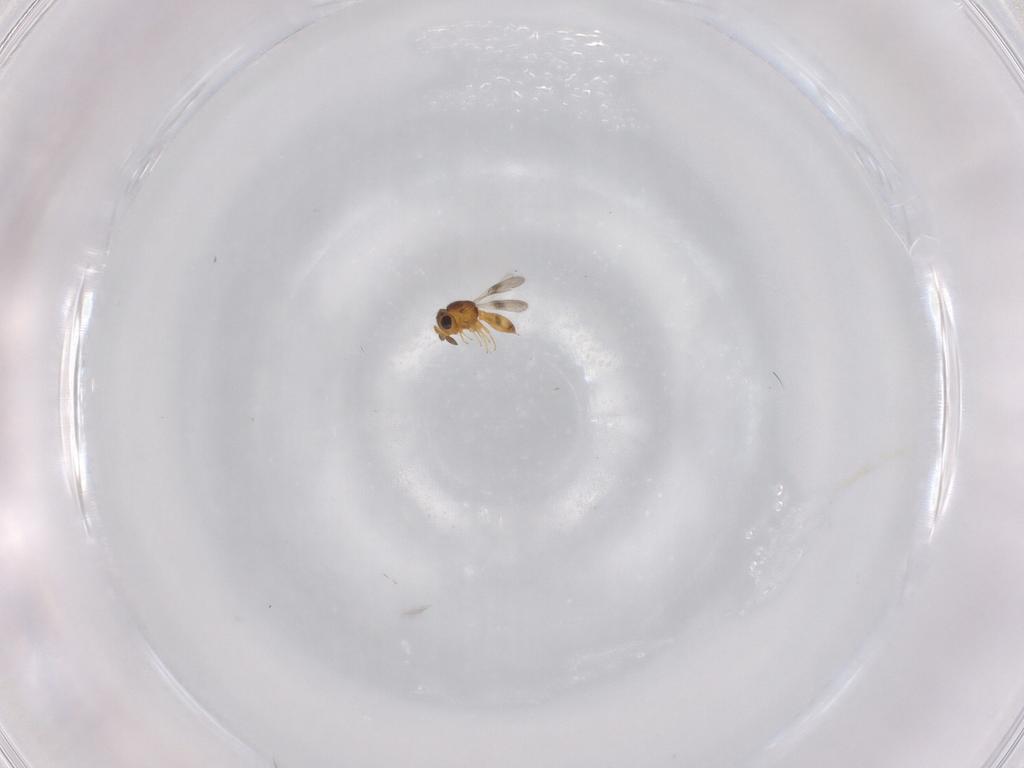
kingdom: Animalia
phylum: Arthropoda
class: Insecta
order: Hymenoptera
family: Scelionidae
